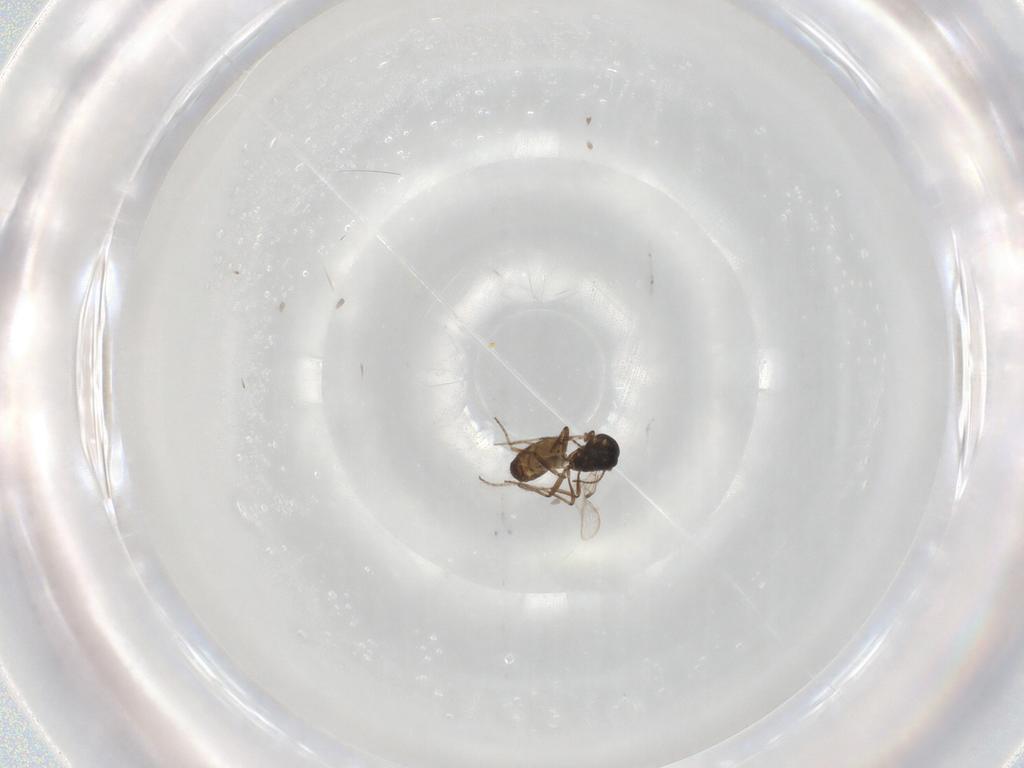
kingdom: Animalia
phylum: Arthropoda
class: Insecta
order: Diptera
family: Ceratopogonidae
